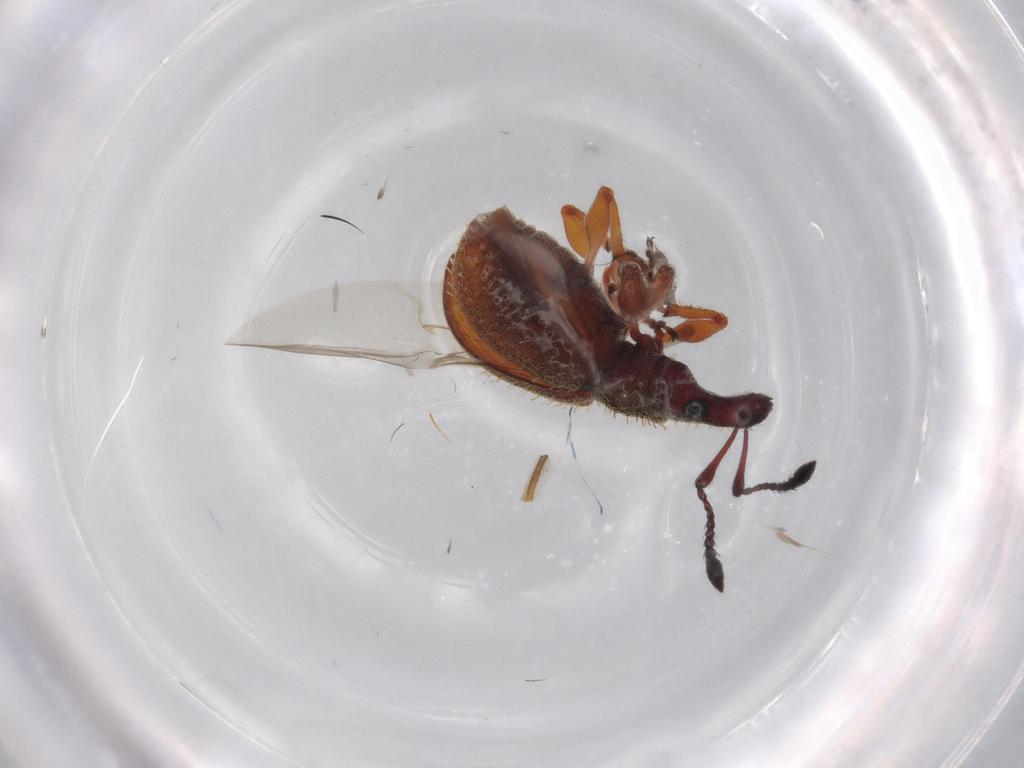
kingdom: Animalia
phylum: Arthropoda
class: Insecta
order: Coleoptera
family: Curculionidae
